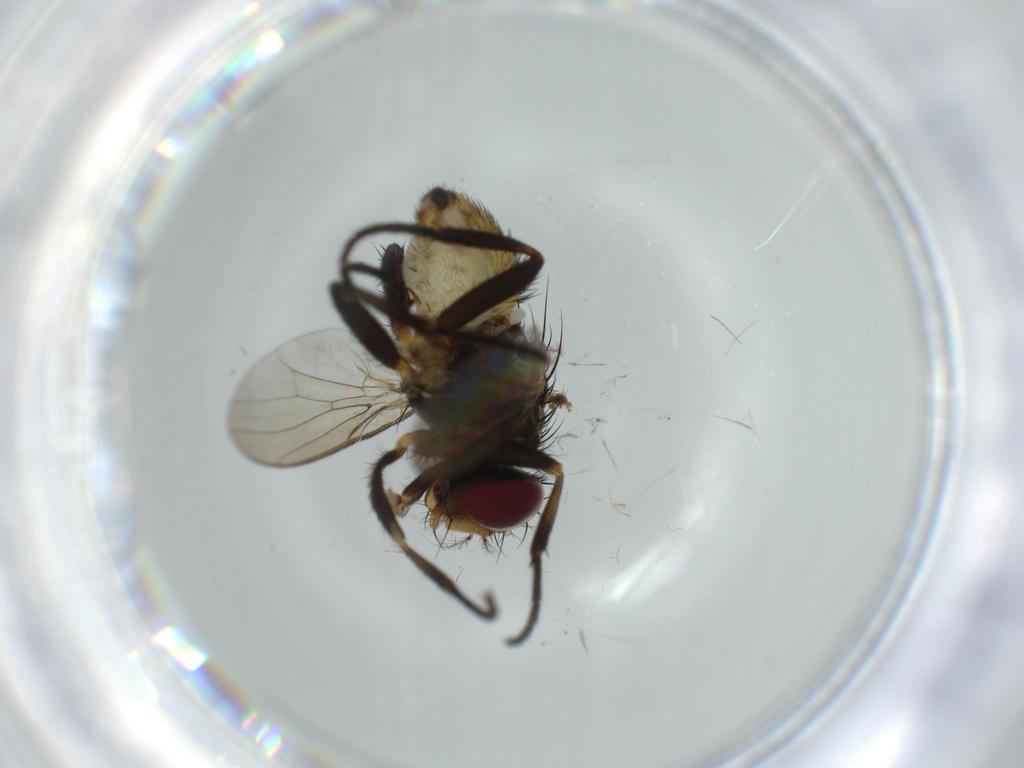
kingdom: Animalia
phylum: Arthropoda
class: Insecta
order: Diptera
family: Anthomyiidae
